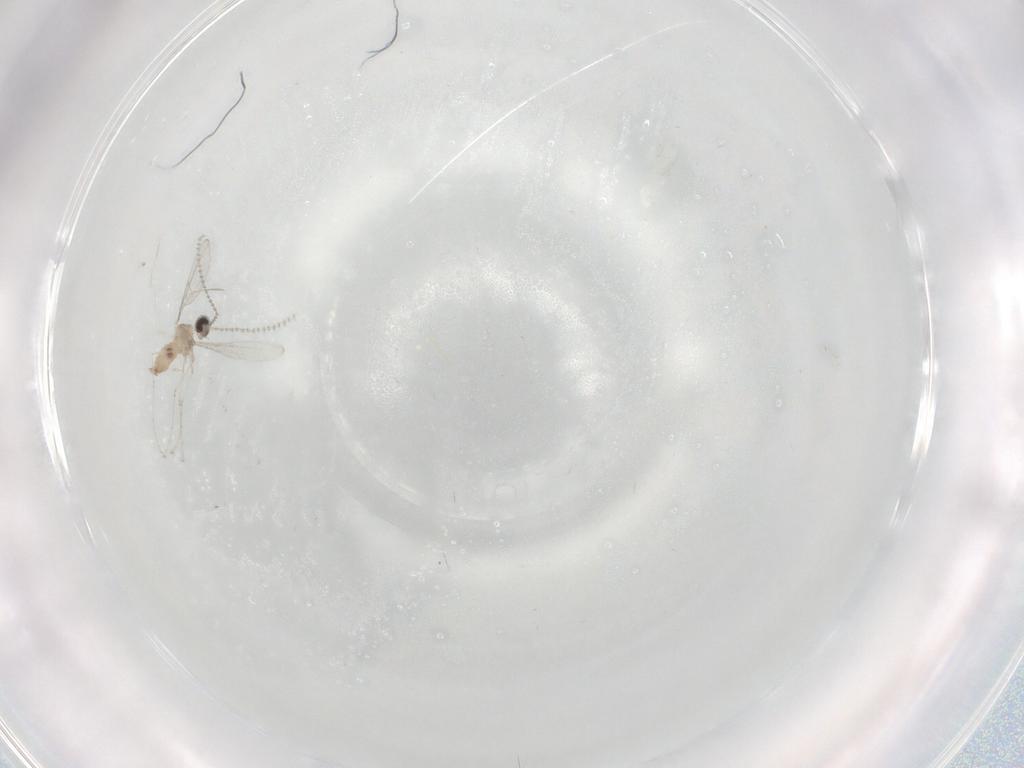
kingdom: Animalia
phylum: Arthropoda
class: Insecta
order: Diptera
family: Cecidomyiidae
